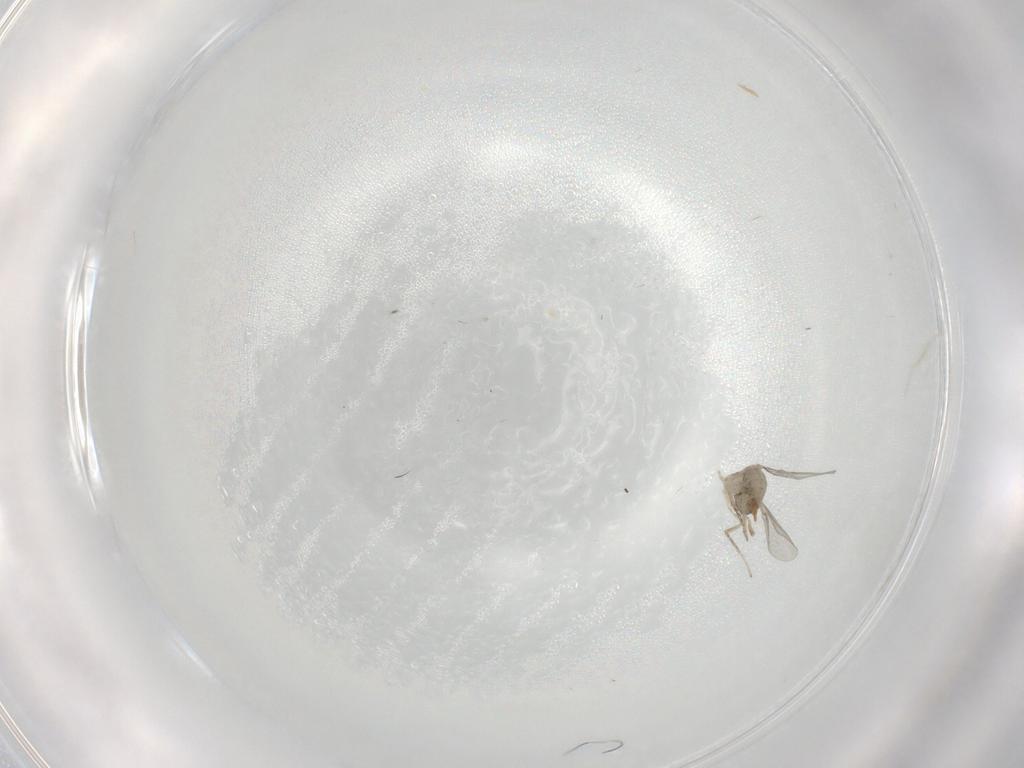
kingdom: Animalia
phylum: Arthropoda
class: Insecta
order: Diptera
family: Cecidomyiidae
